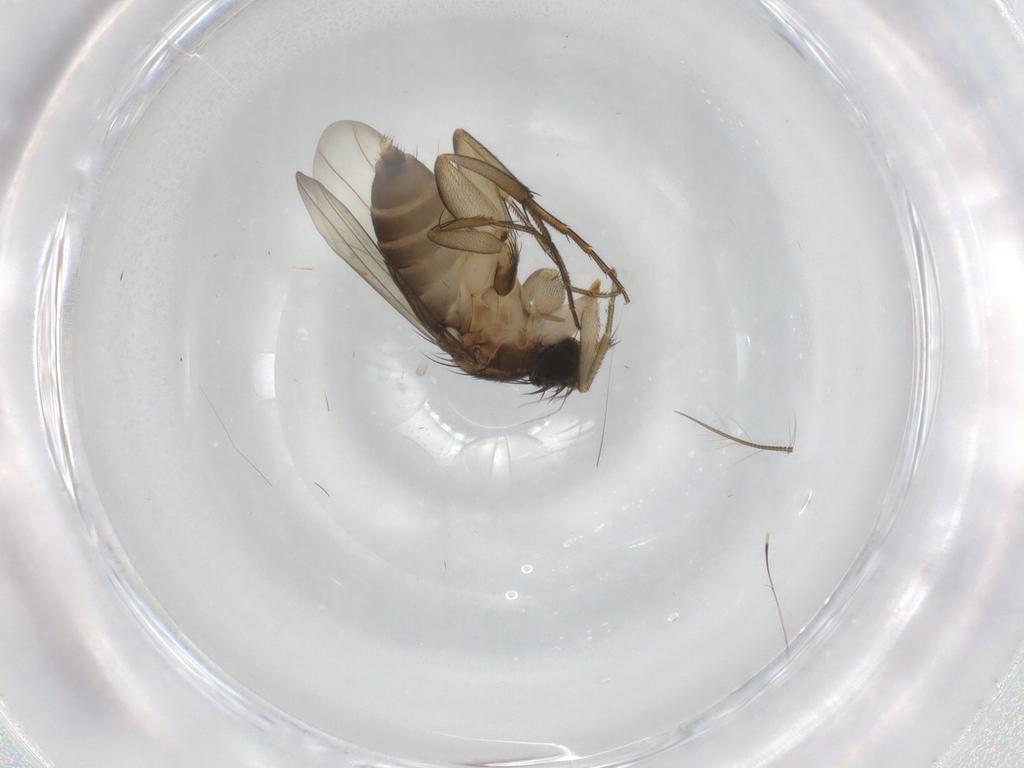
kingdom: Animalia
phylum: Arthropoda
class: Insecta
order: Diptera
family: Phoridae
